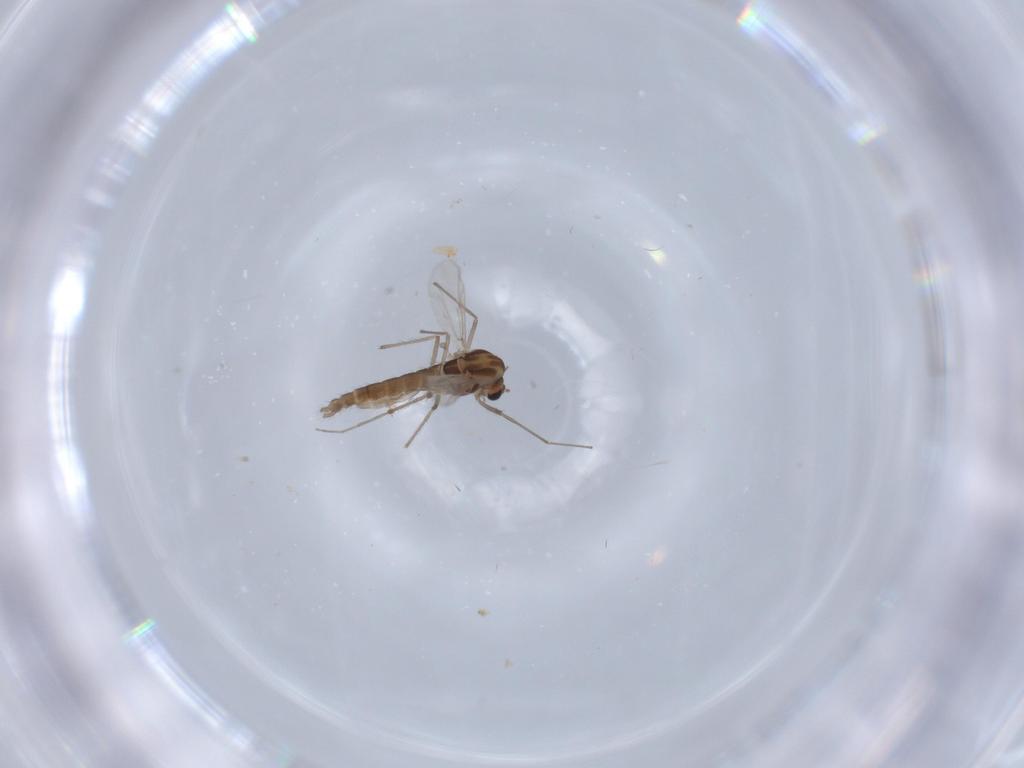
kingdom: Animalia
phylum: Arthropoda
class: Insecta
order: Diptera
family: Chironomidae
